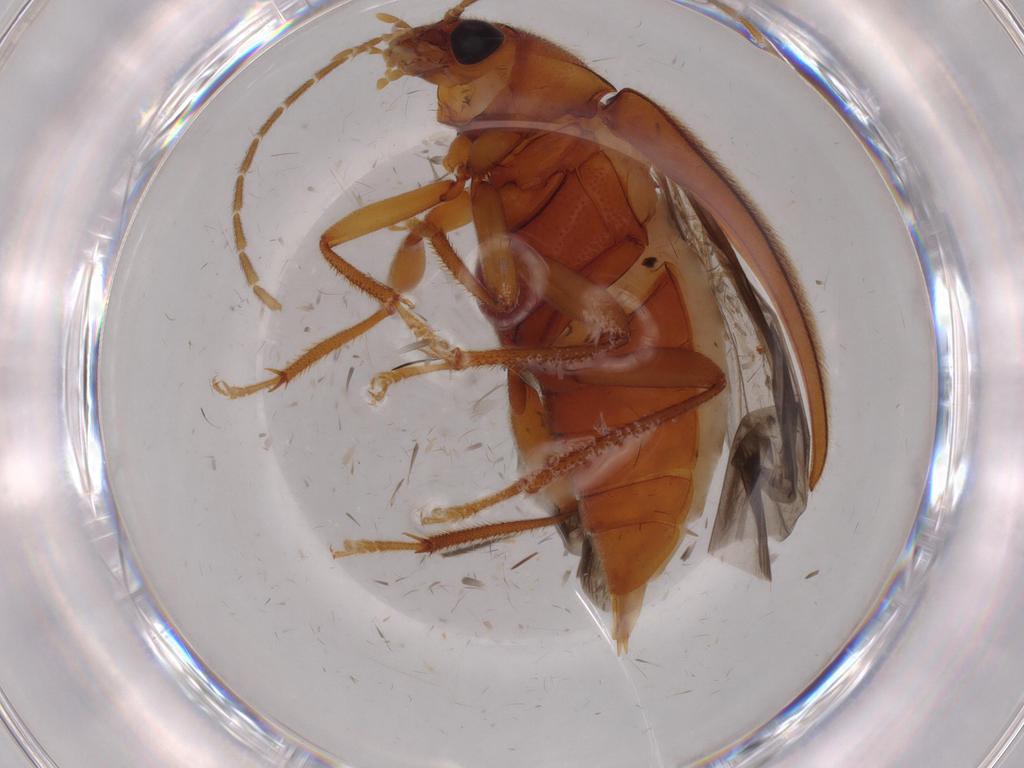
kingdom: Animalia
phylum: Arthropoda
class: Insecta
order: Coleoptera
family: Ptilodactylidae
